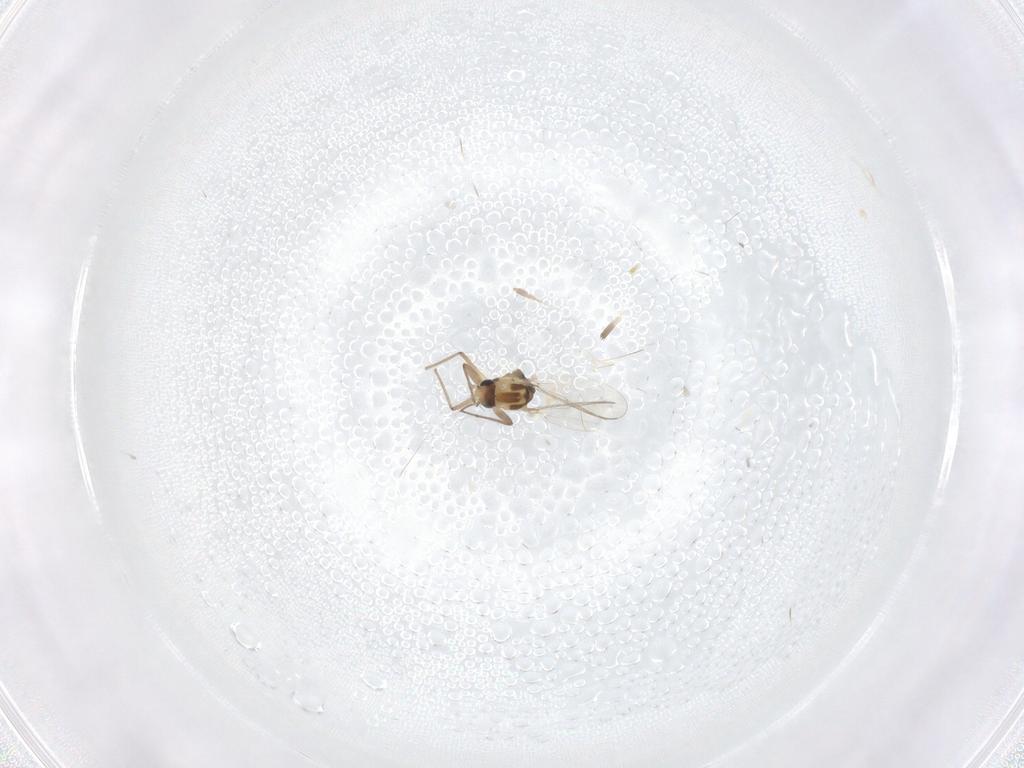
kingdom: Animalia
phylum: Arthropoda
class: Insecta
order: Diptera
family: Cecidomyiidae
